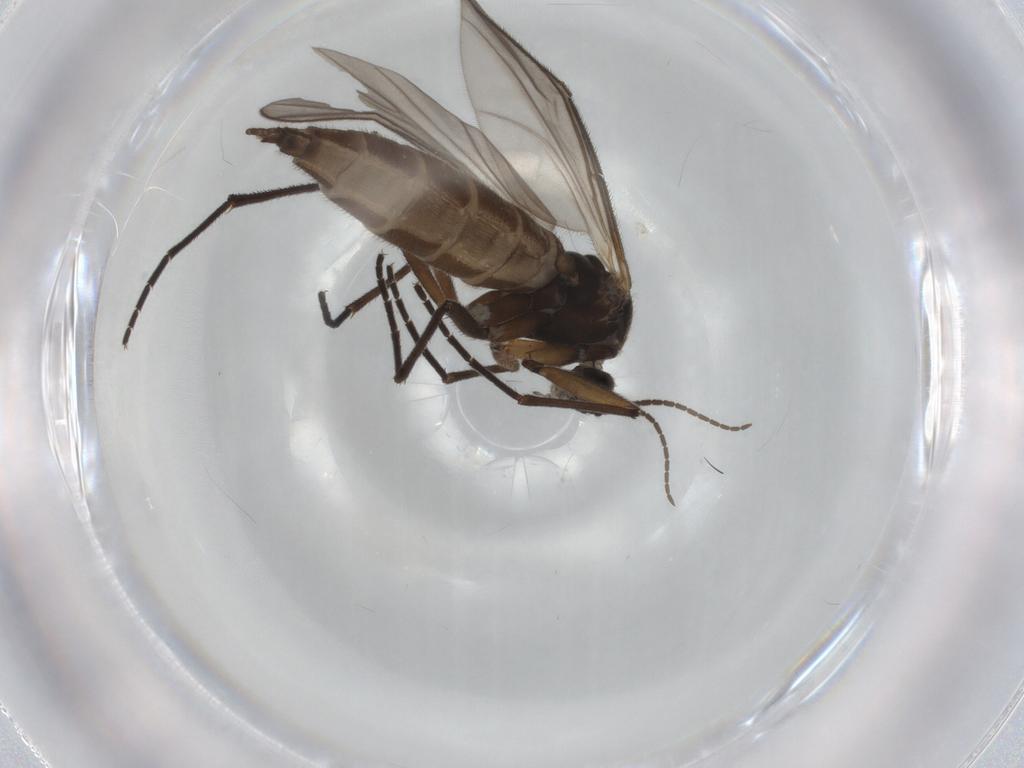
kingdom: Animalia
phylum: Arthropoda
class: Insecta
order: Diptera
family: Sciaridae
